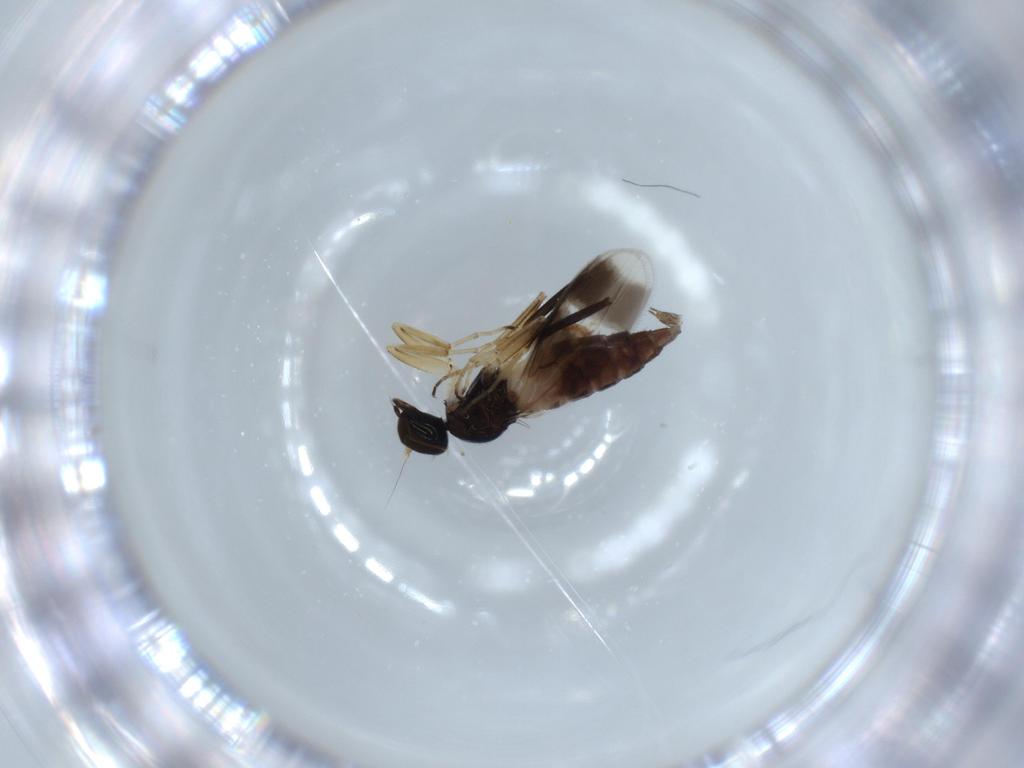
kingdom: Animalia
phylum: Arthropoda
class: Insecta
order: Diptera
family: Hybotidae
